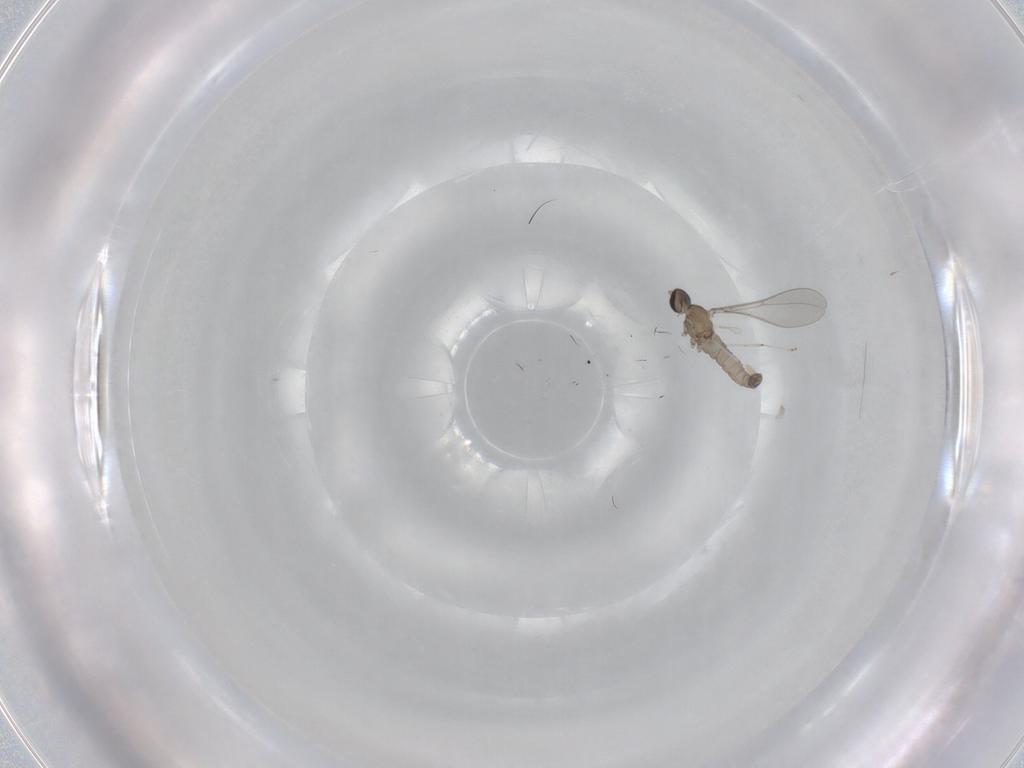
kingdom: Animalia
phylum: Arthropoda
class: Insecta
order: Diptera
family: Cecidomyiidae
